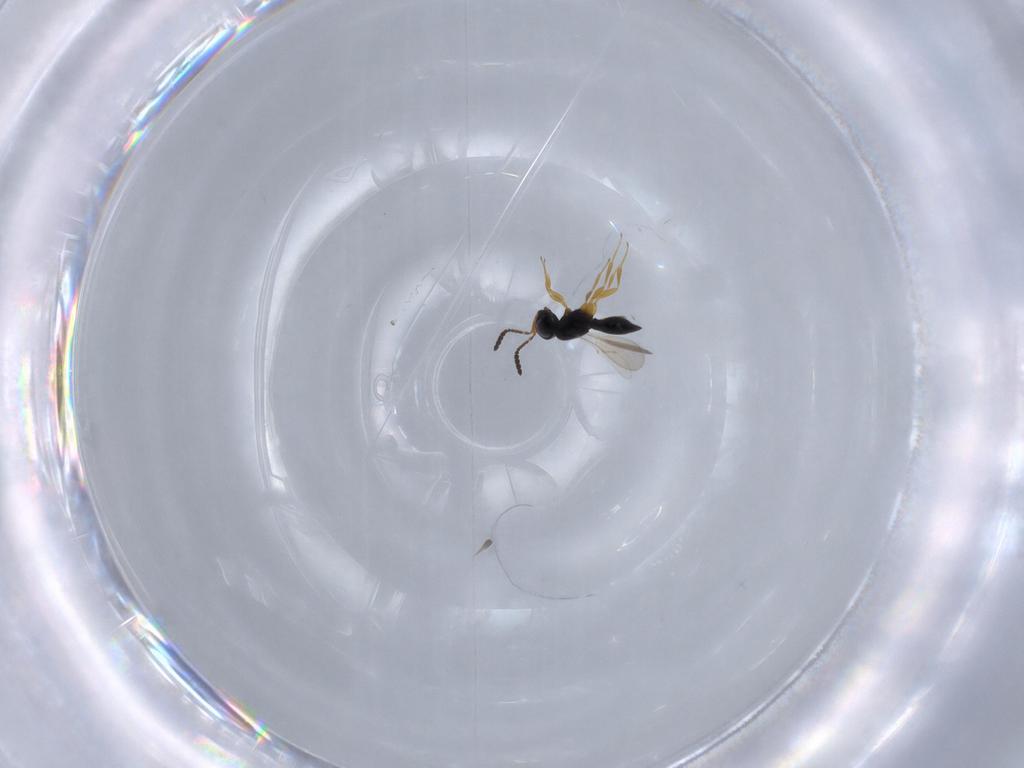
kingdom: Animalia
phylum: Arthropoda
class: Insecta
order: Hymenoptera
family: Scelionidae
